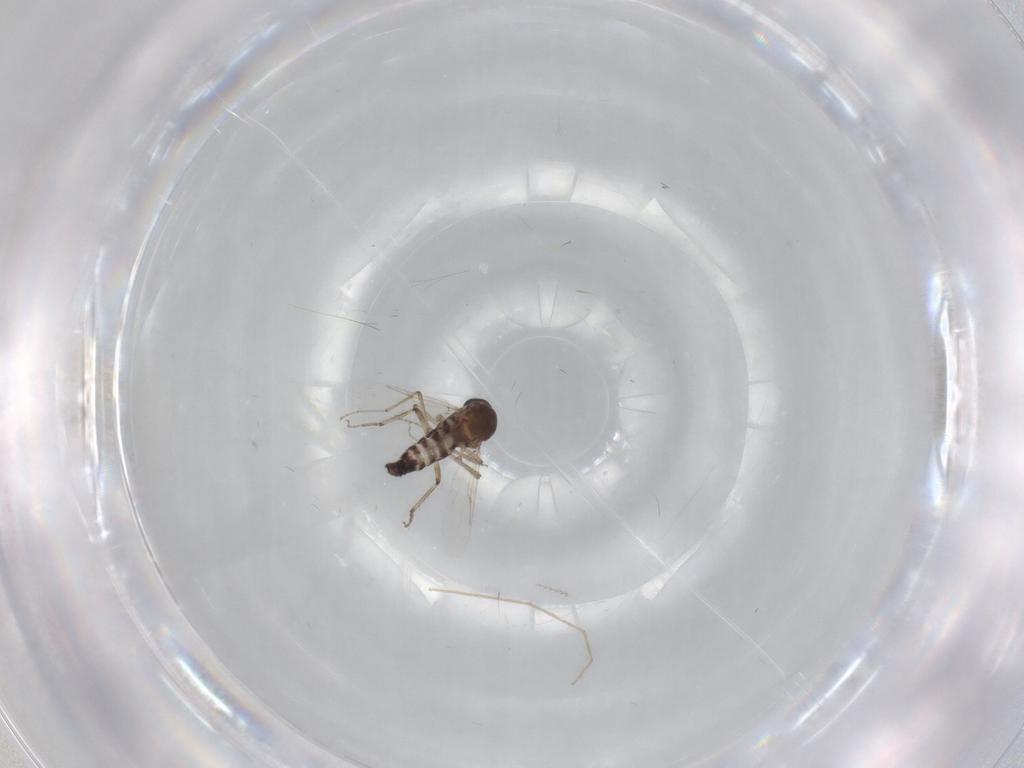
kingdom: Animalia
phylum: Arthropoda
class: Insecta
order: Diptera
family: Ceratopogonidae
